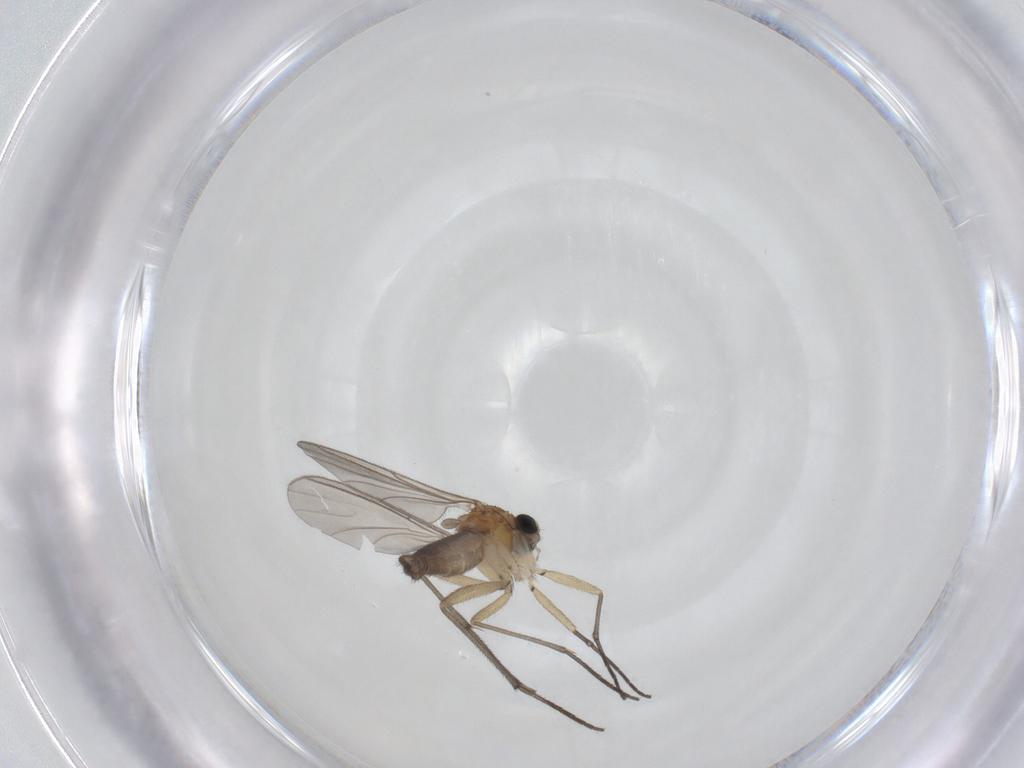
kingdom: Animalia
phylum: Arthropoda
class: Insecta
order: Diptera
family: Sciaridae
